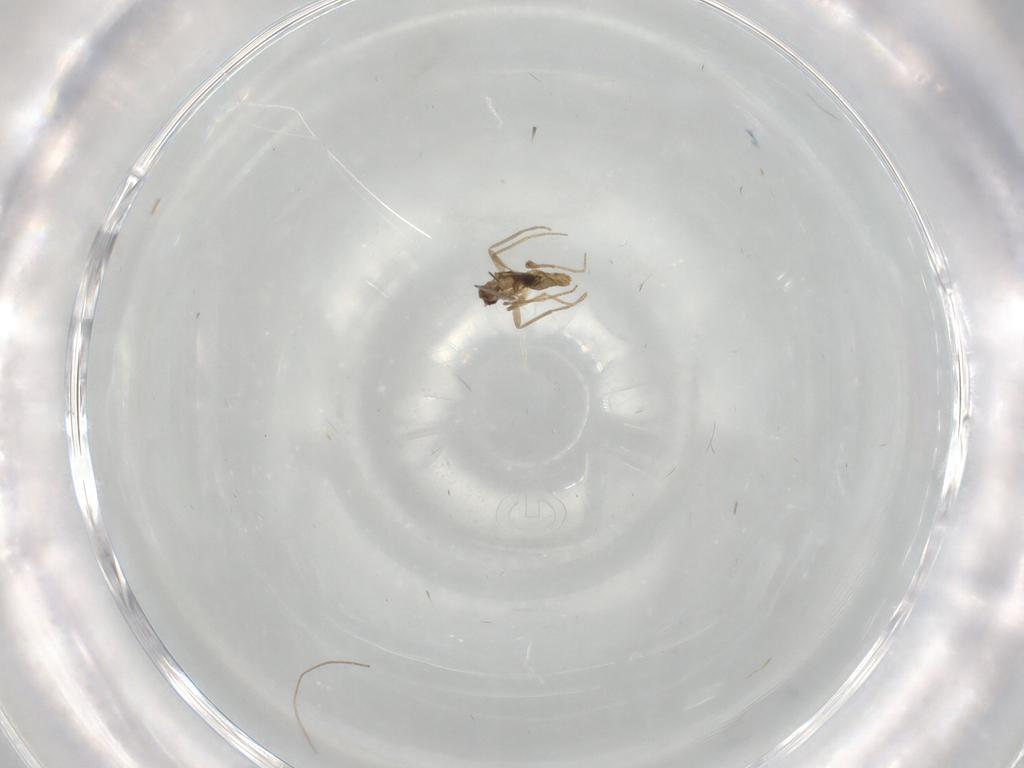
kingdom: Animalia
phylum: Arthropoda
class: Insecta
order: Diptera
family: Chironomidae
